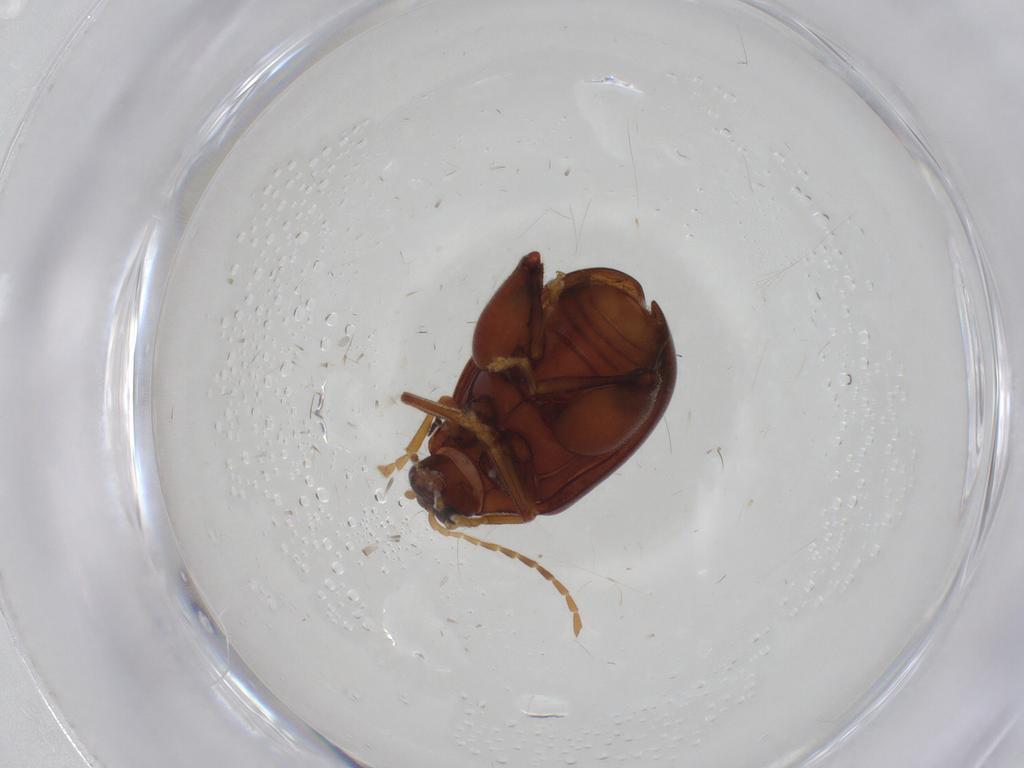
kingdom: Animalia
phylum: Arthropoda
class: Insecta
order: Coleoptera
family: Chrysomelidae
